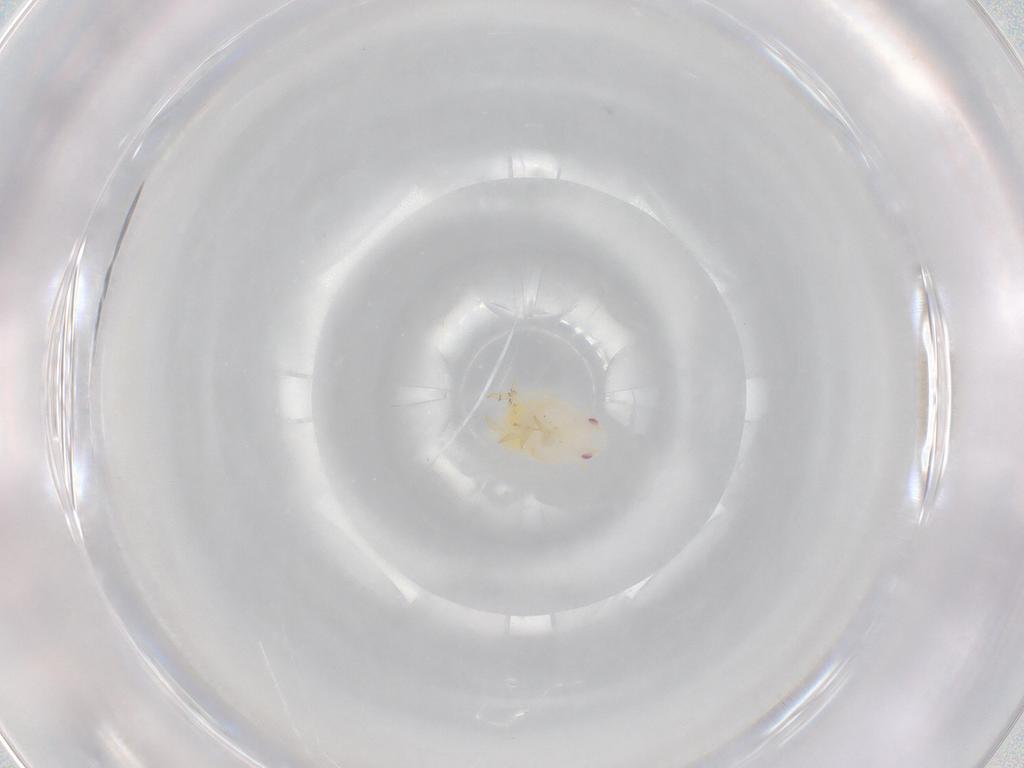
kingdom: Animalia
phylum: Arthropoda
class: Insecta
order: Hemiptera
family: Flatidae
